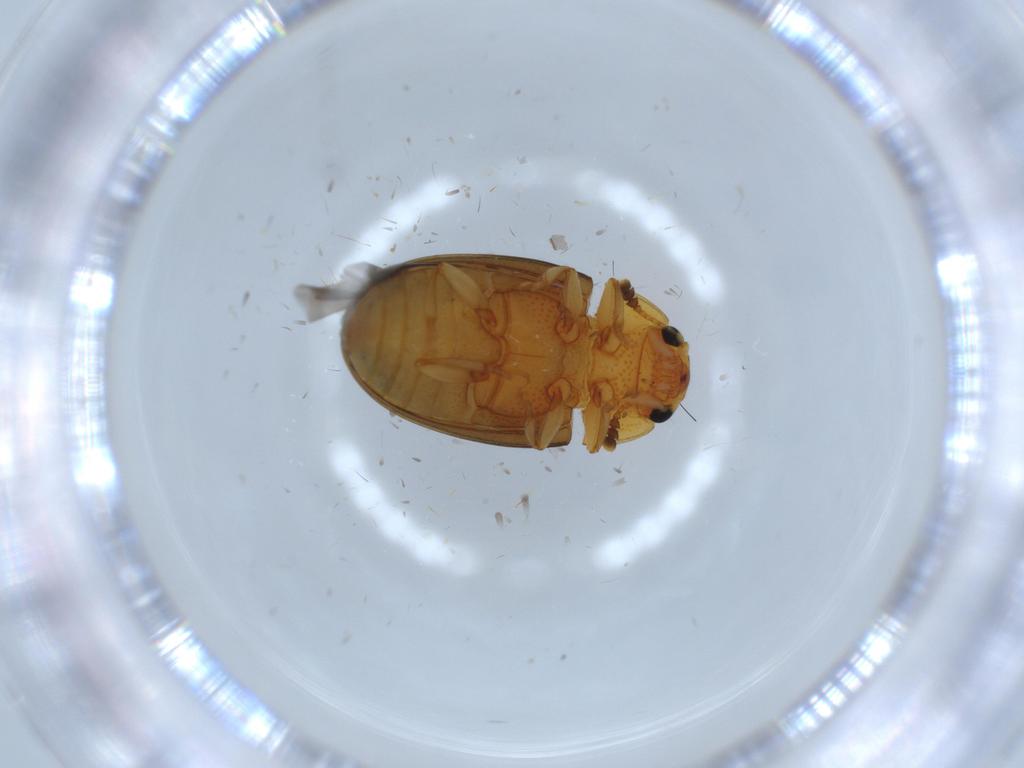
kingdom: Animalia
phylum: Arthropoda
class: Insecta
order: Coleoptera
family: Erotylidae
